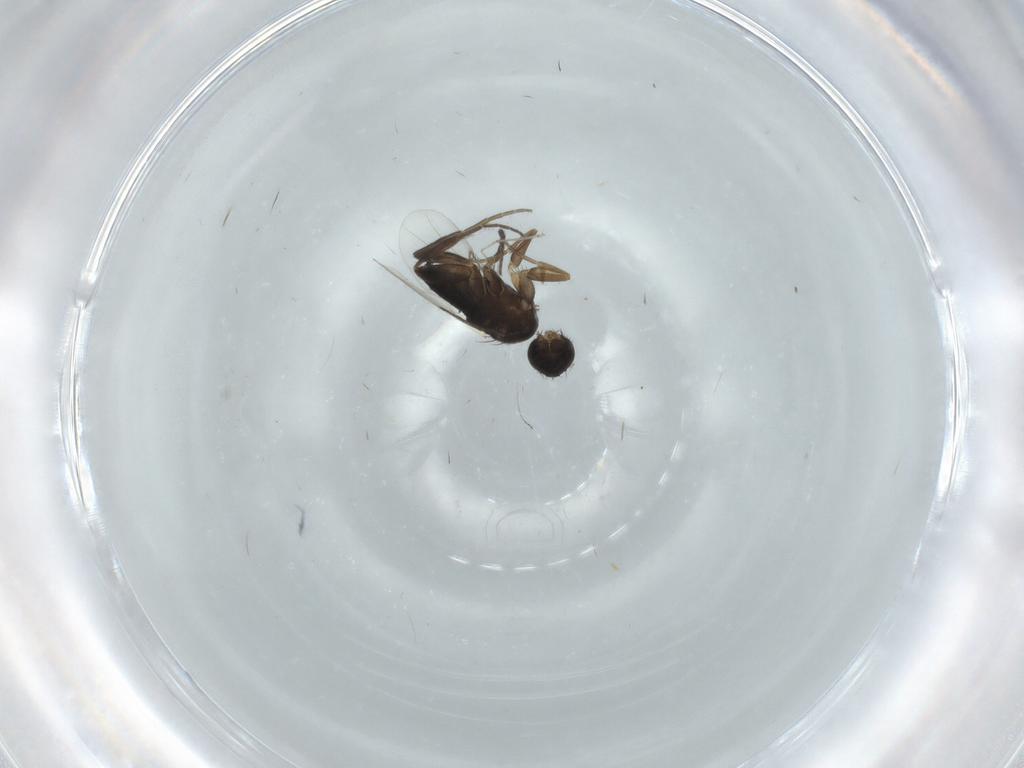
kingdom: Animalia
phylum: Arthropoda
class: Insecta
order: Diptera
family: Phoridae
